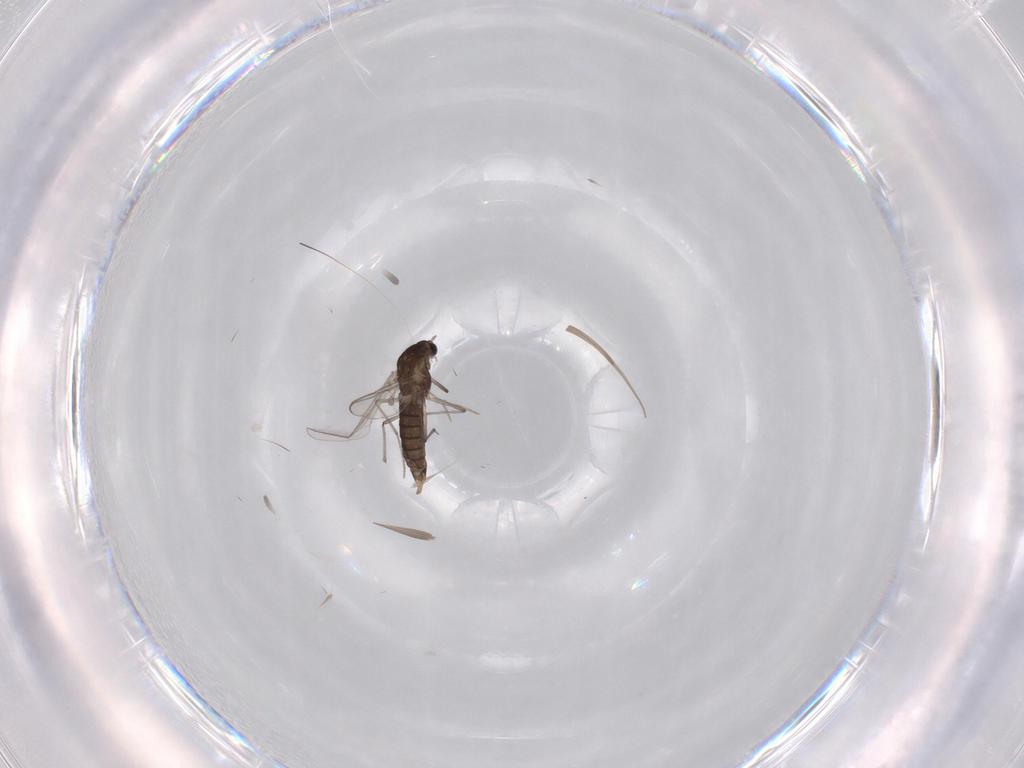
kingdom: Animalia
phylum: Arthropoda
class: Insecta
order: Diptera
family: Chironomidae
